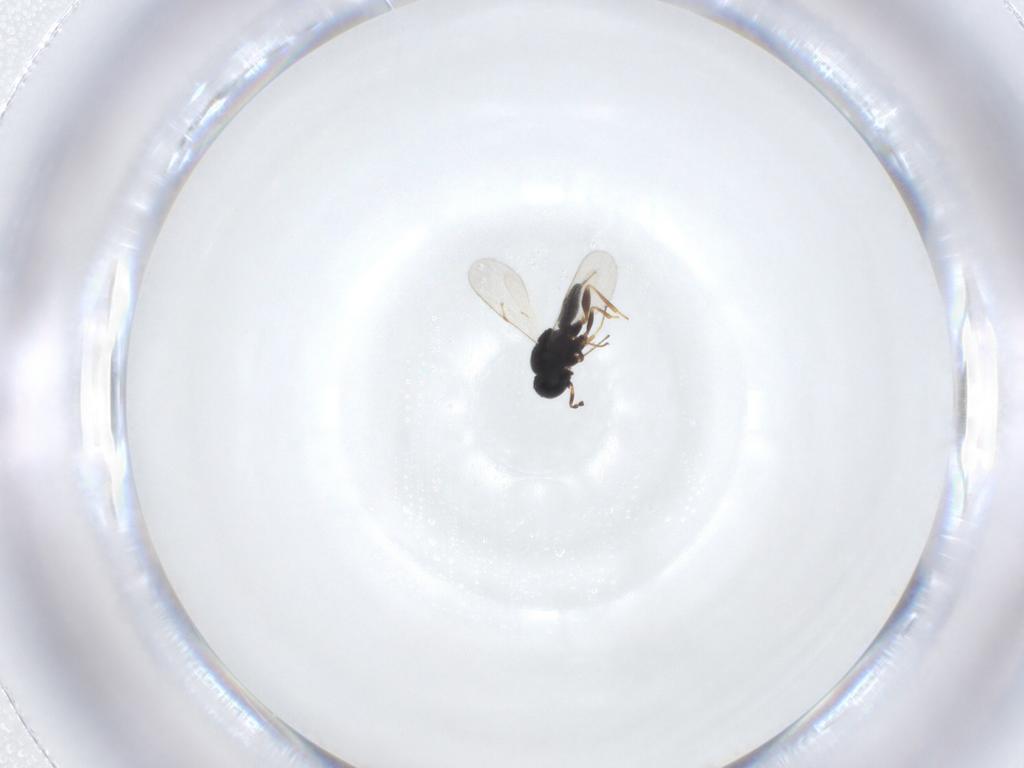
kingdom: Animalia
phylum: Arthropoda
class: Insecta
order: Hymenoptera
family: Scelionidae
